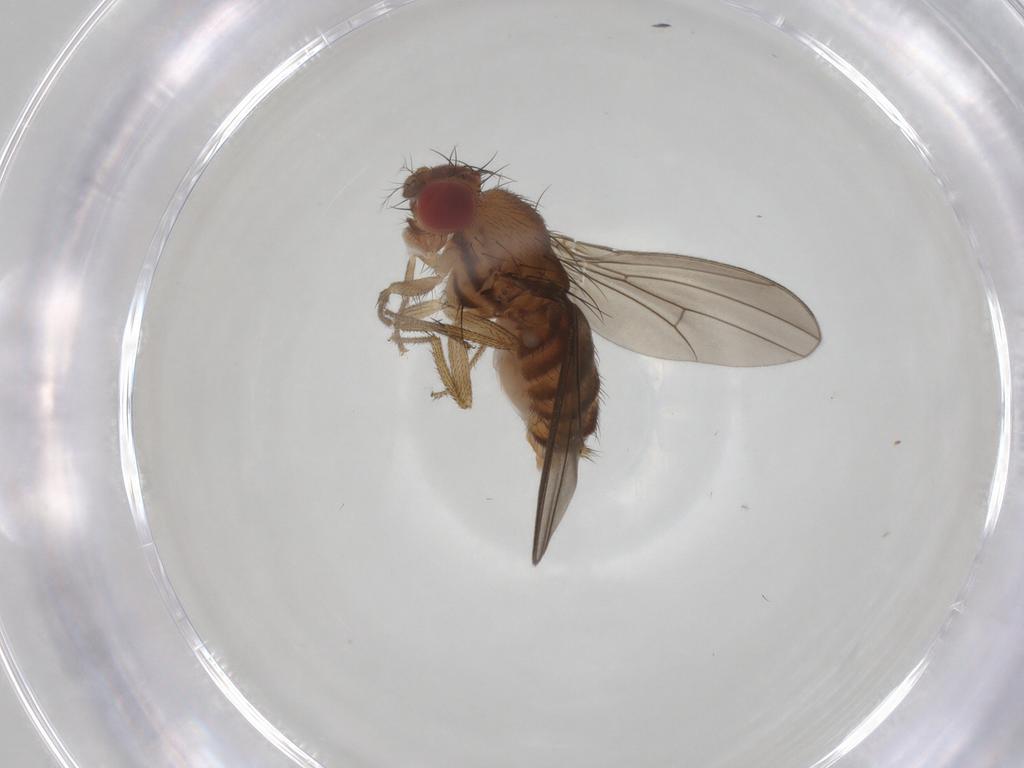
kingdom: Animalia
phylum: Arthropoda
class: Insecta
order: Diptera
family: Drosophilidae
